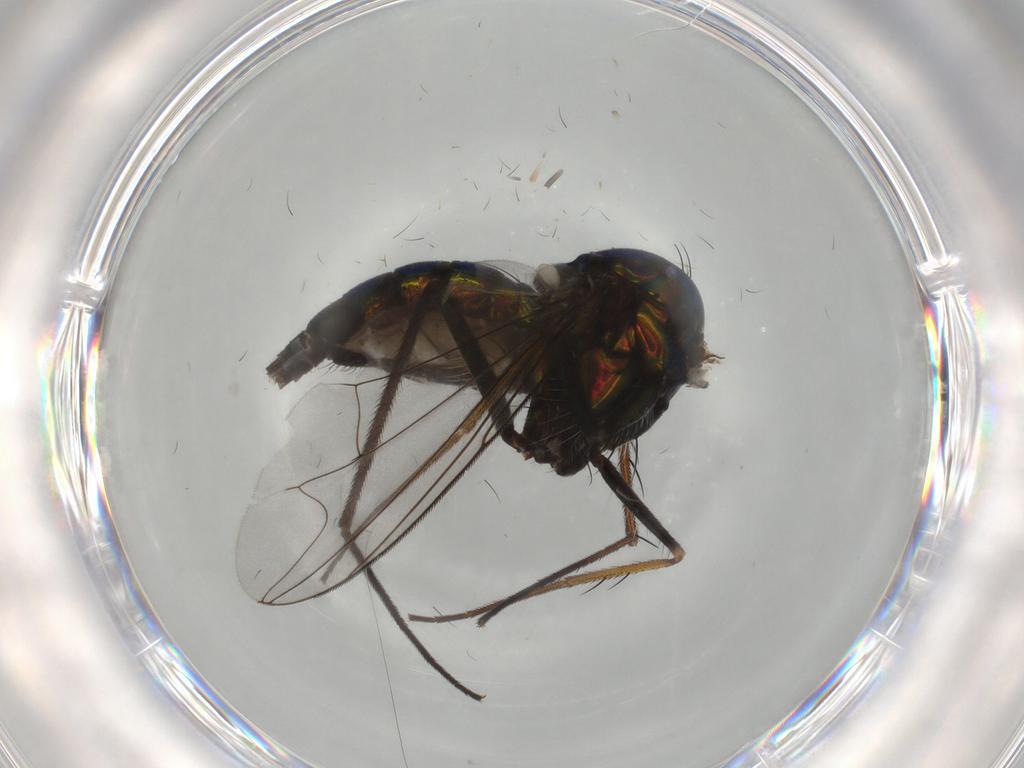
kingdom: Animalia
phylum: Arthropoda
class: Insecta
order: Diptera
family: Dolichopodidae
